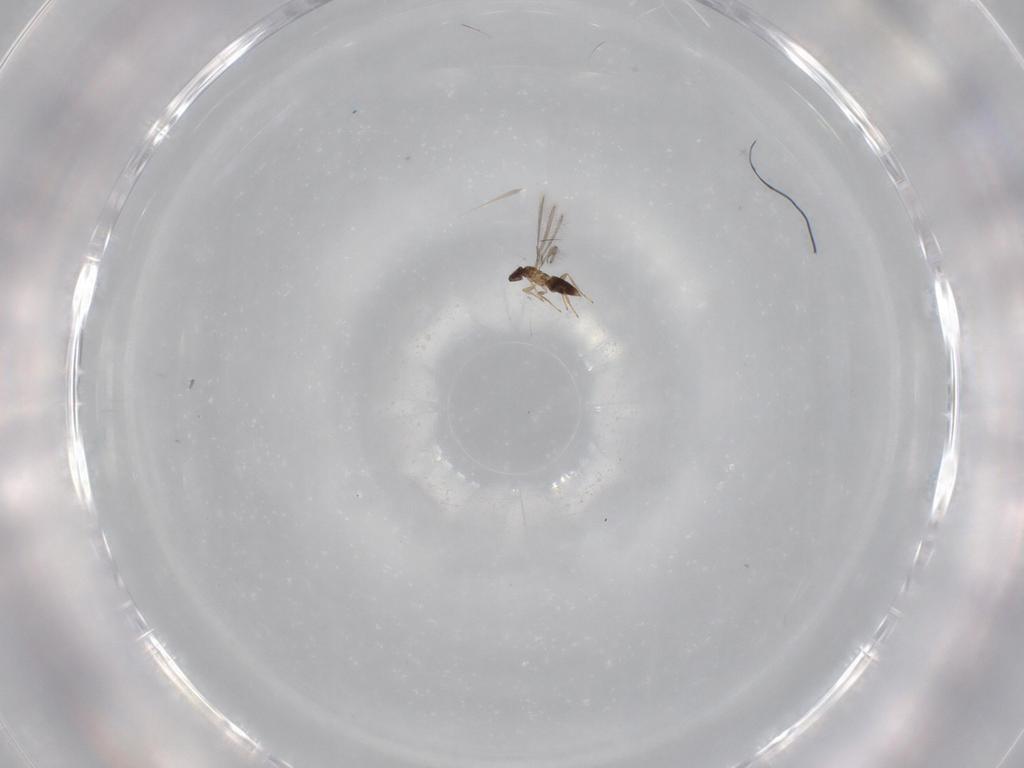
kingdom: Animalia
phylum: Arthropoda
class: Insecta
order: Hymenoptera
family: Mymaridae
